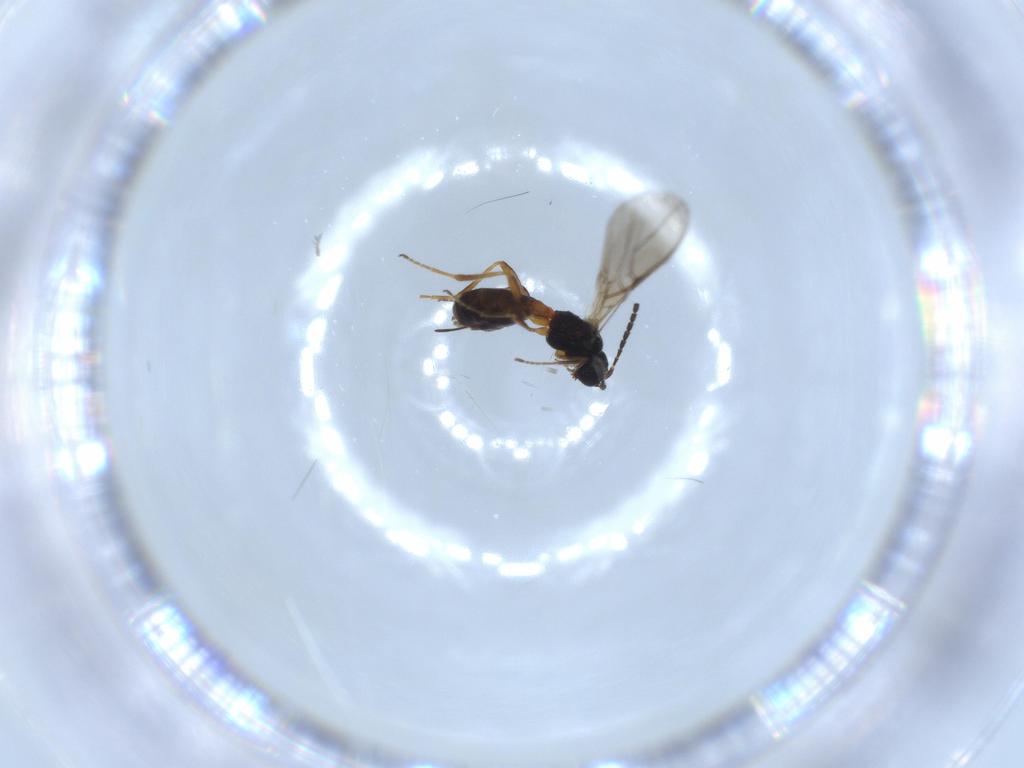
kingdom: Animalia
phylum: Arthropoda
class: Insecta
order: Hymenoptera
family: Braconidae
